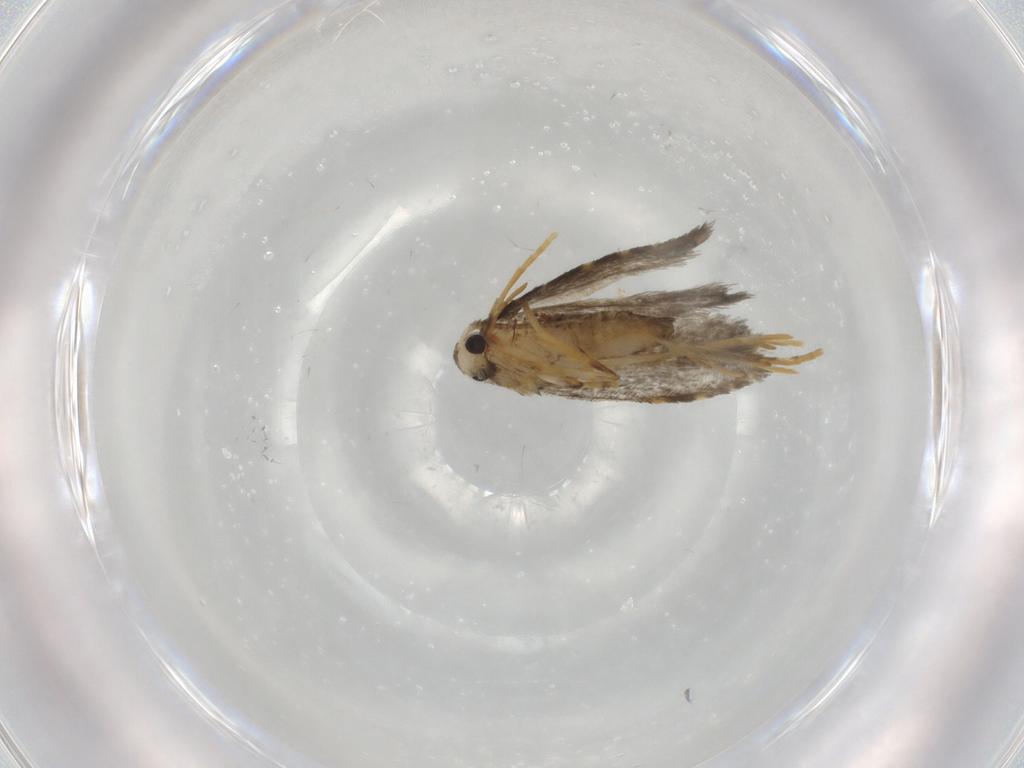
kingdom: Animalia
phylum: Arthropoda
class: Insecta
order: Lepidoptera
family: Psychidae
